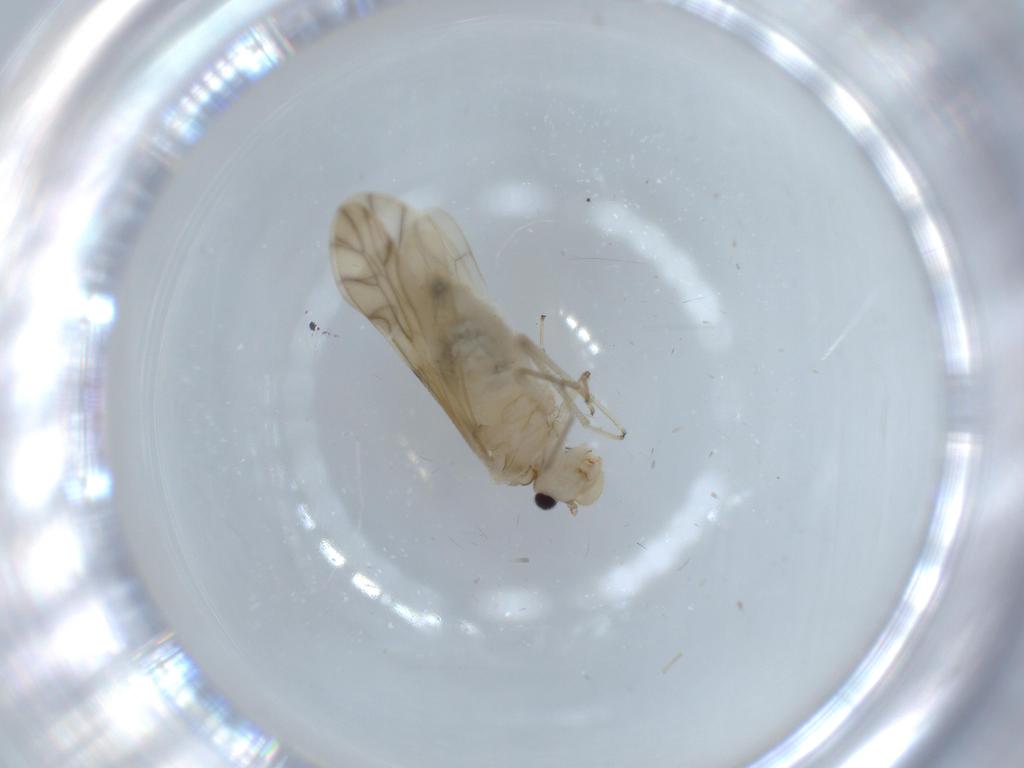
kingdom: Animalia
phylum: Arthropoda
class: Insecta
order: Psocodea
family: Caeciliusidae
